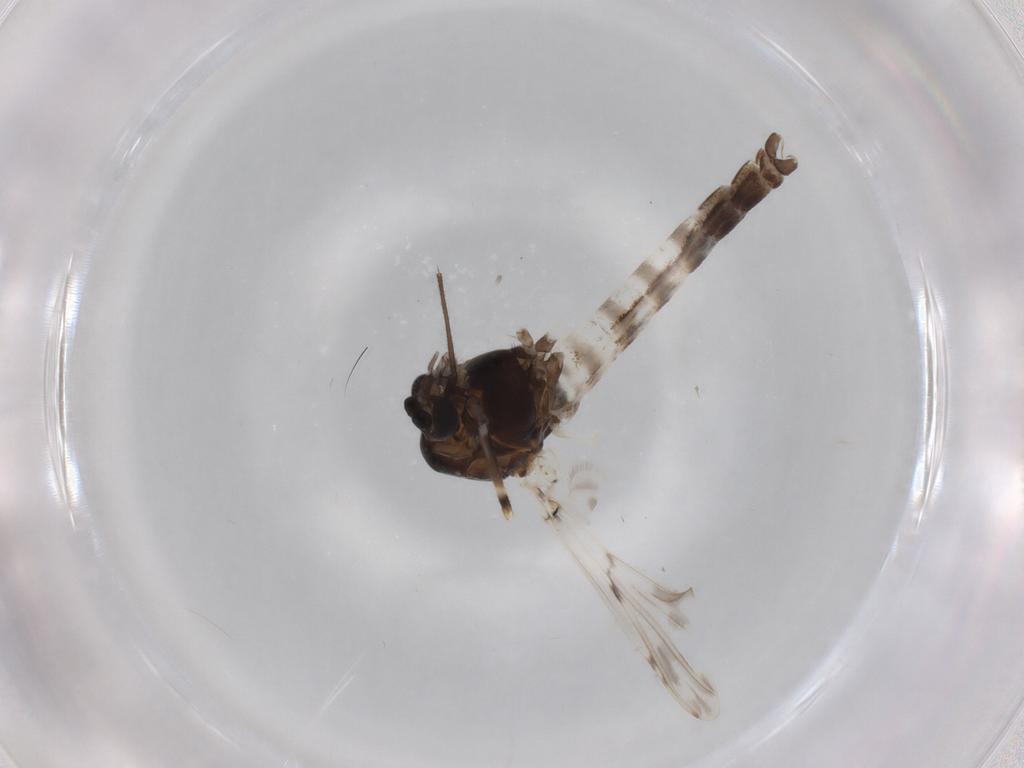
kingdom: Animalia
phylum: Arthropoda
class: Insecta
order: Diptera
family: Chironomidae
